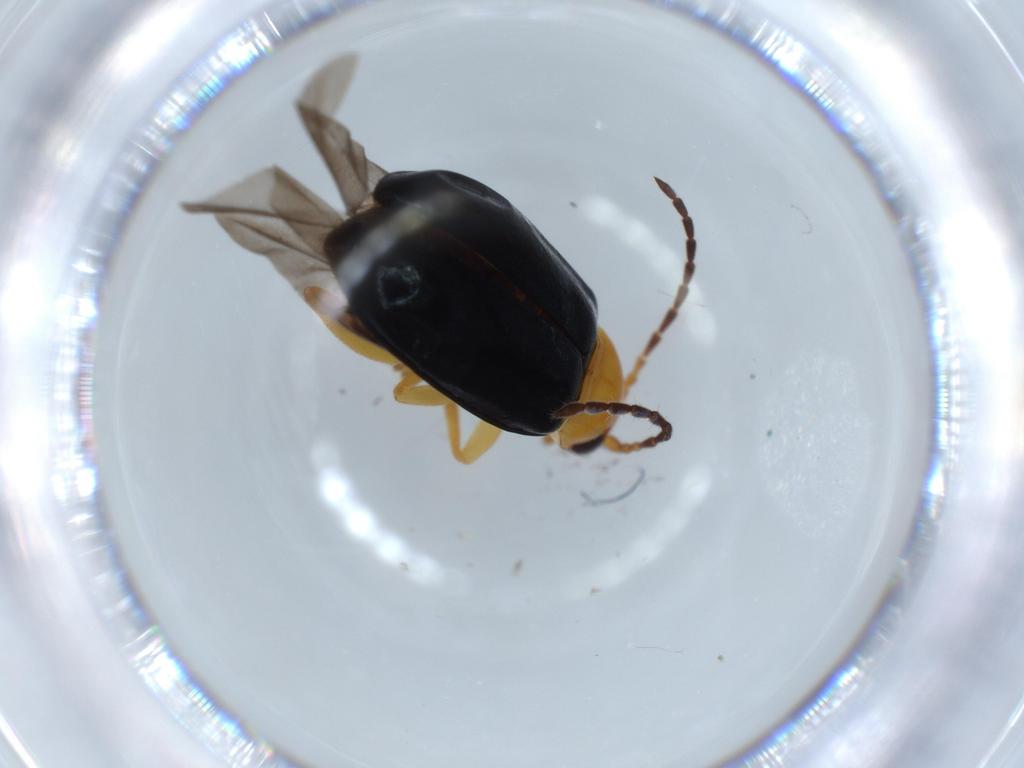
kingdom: Animalia
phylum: Arthropoda
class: Insecta
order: Coleoptera
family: Chrysomelidae
